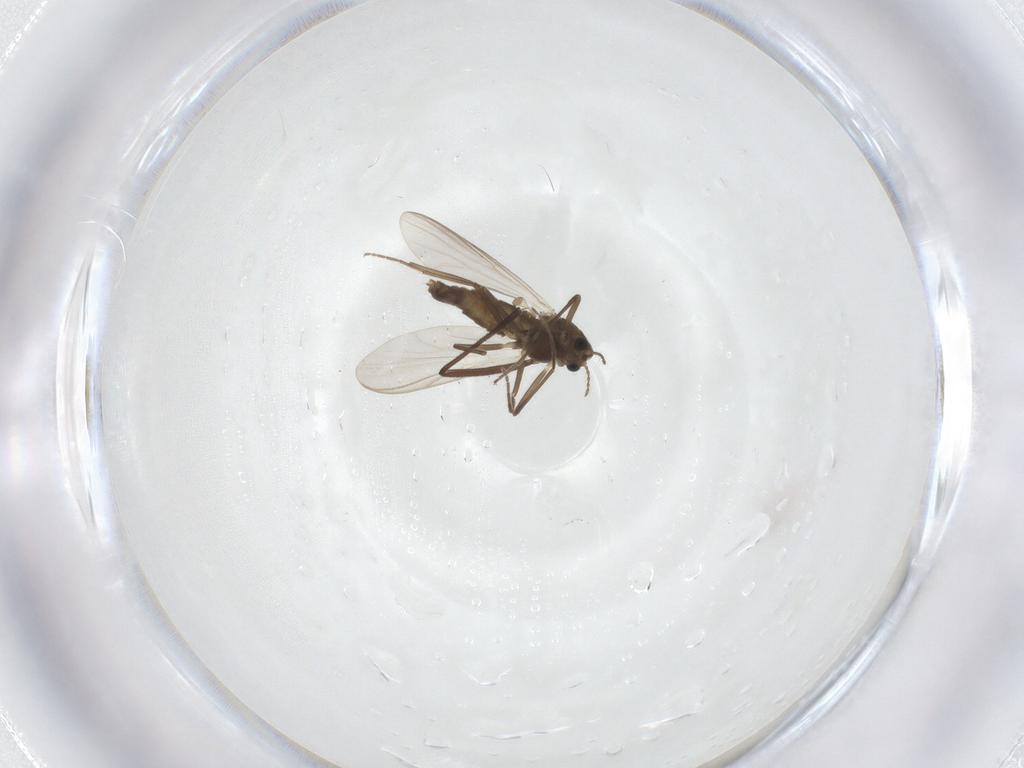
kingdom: Animalia
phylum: Arthropoda
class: Insecta
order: Diptera
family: Sciaridae
